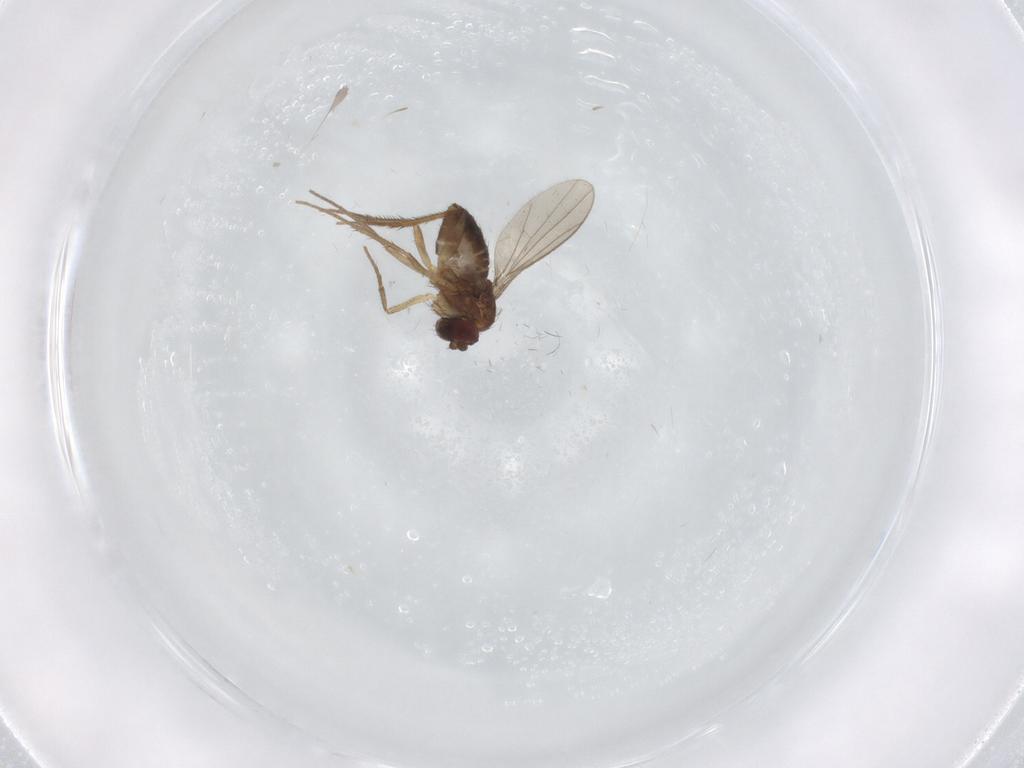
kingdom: Animalia
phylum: Arthropoda
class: Insecta
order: Diptera
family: Dolichopodidae
